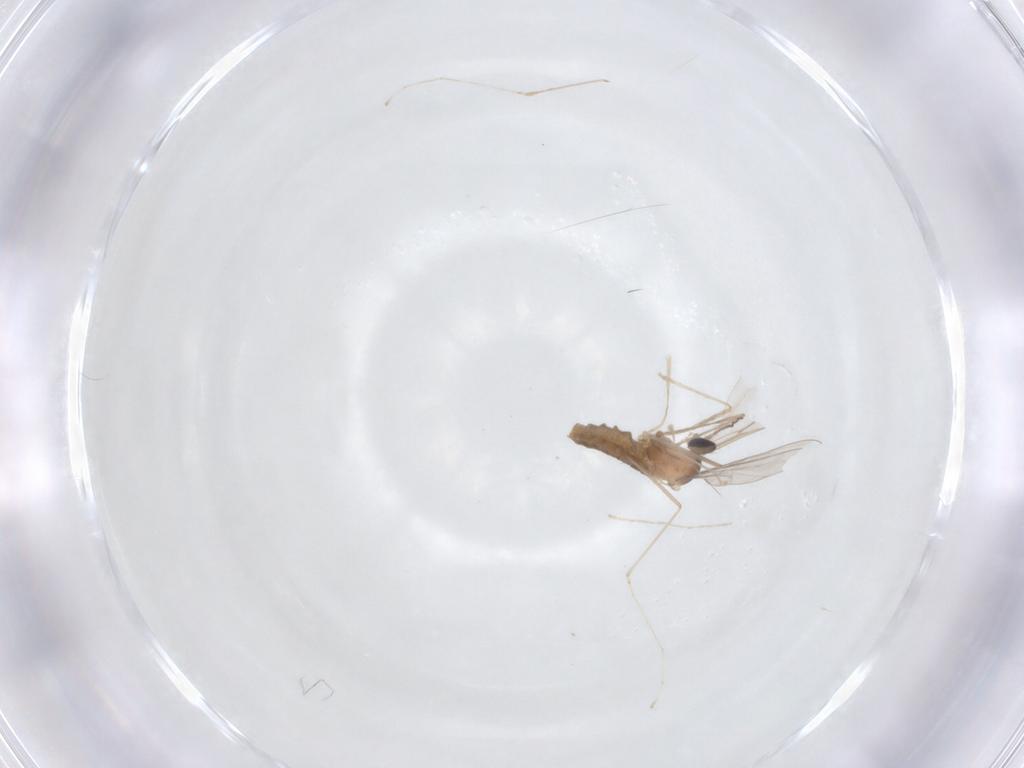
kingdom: Animalia
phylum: Arthropoda
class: Insecta
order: Diptera
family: Cecidomyiidae
